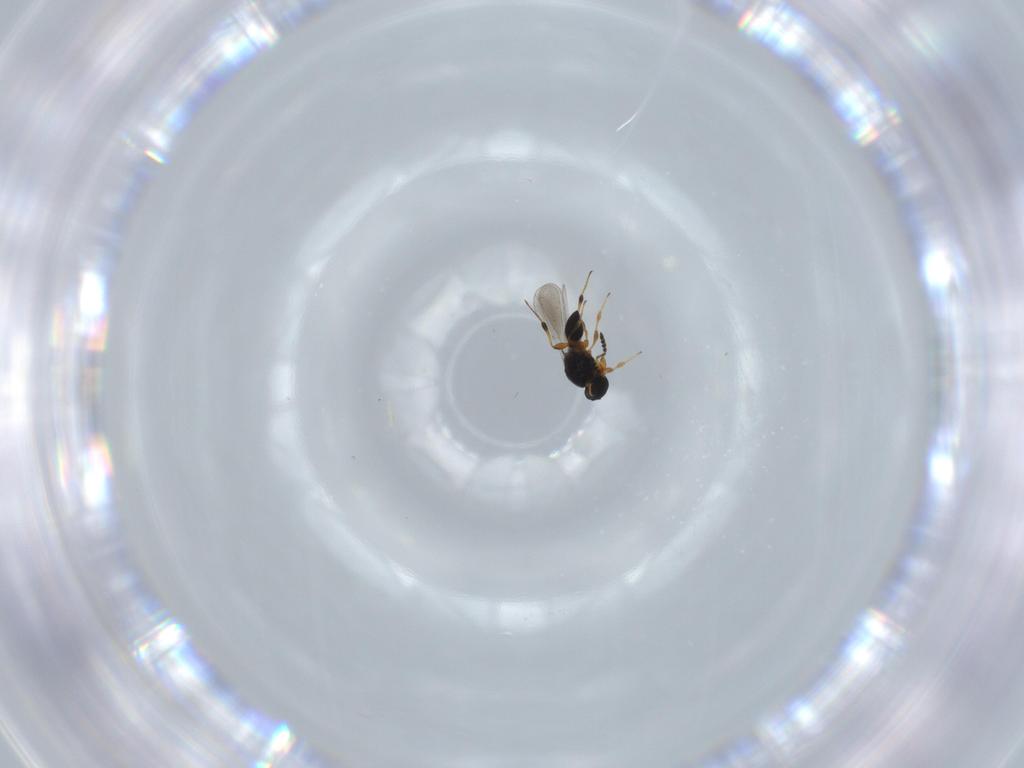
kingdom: Animalia
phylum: Arthropoda
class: Insecta
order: Hymenoptera
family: Platygastridae
